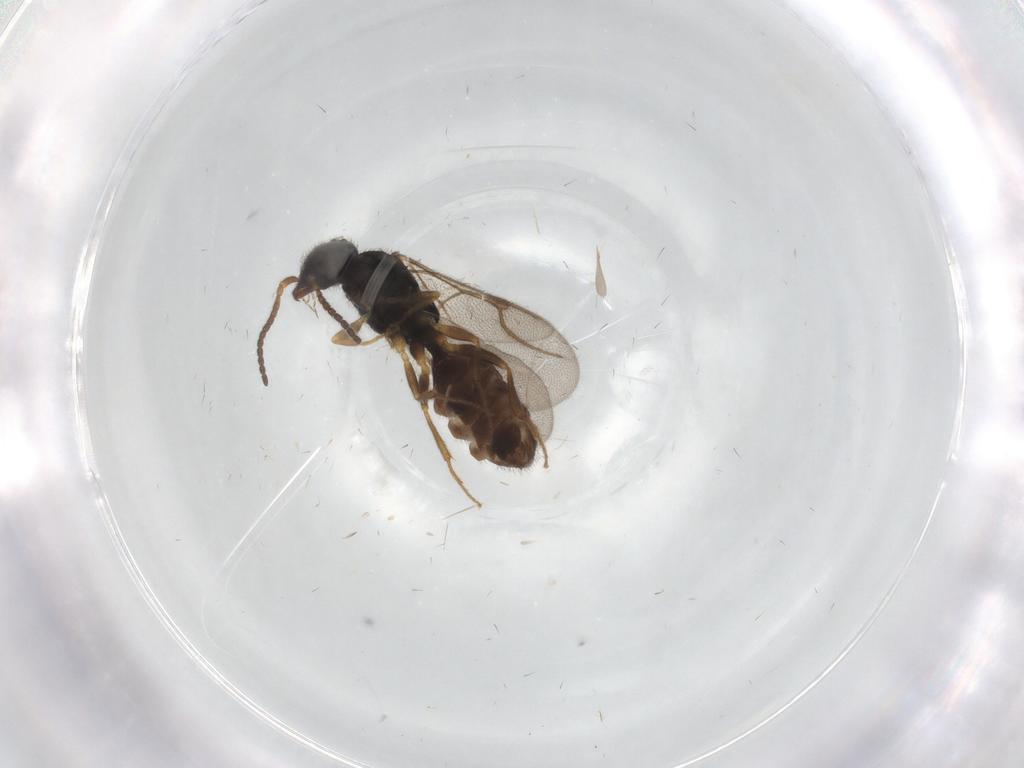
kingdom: Animalia
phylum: Arthropoda
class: Insecta
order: Hymenoptera
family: Bethylidae
